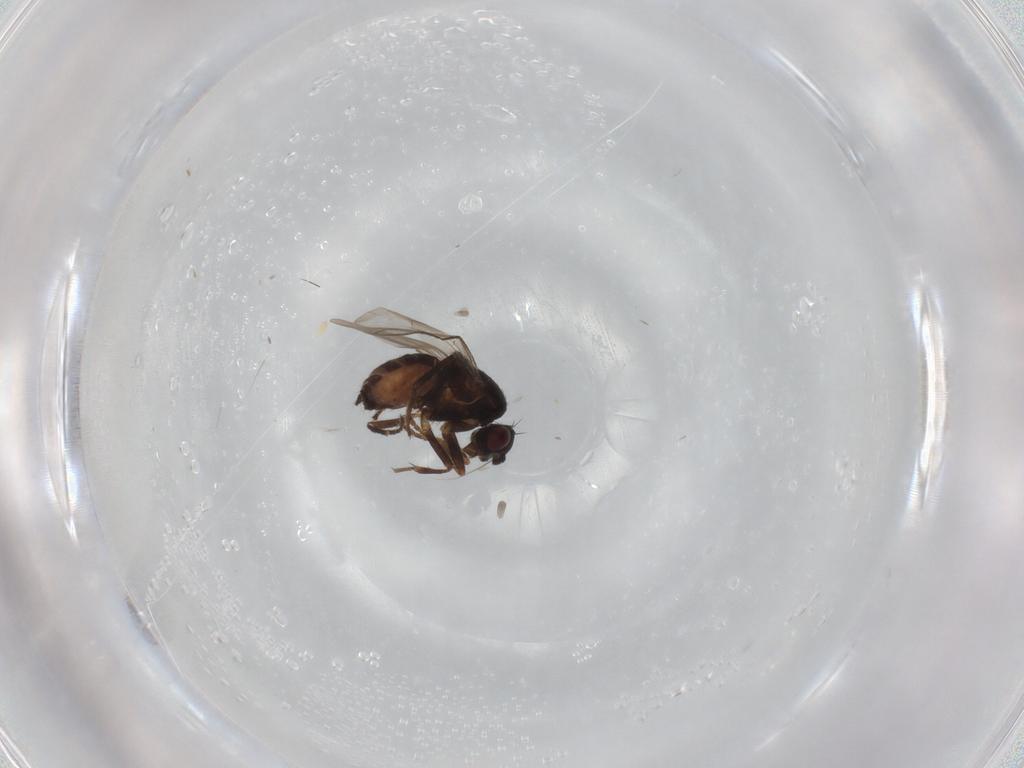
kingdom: Animalia
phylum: Arthropoda
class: Insecta
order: Diptera
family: Sphaeroceridae
